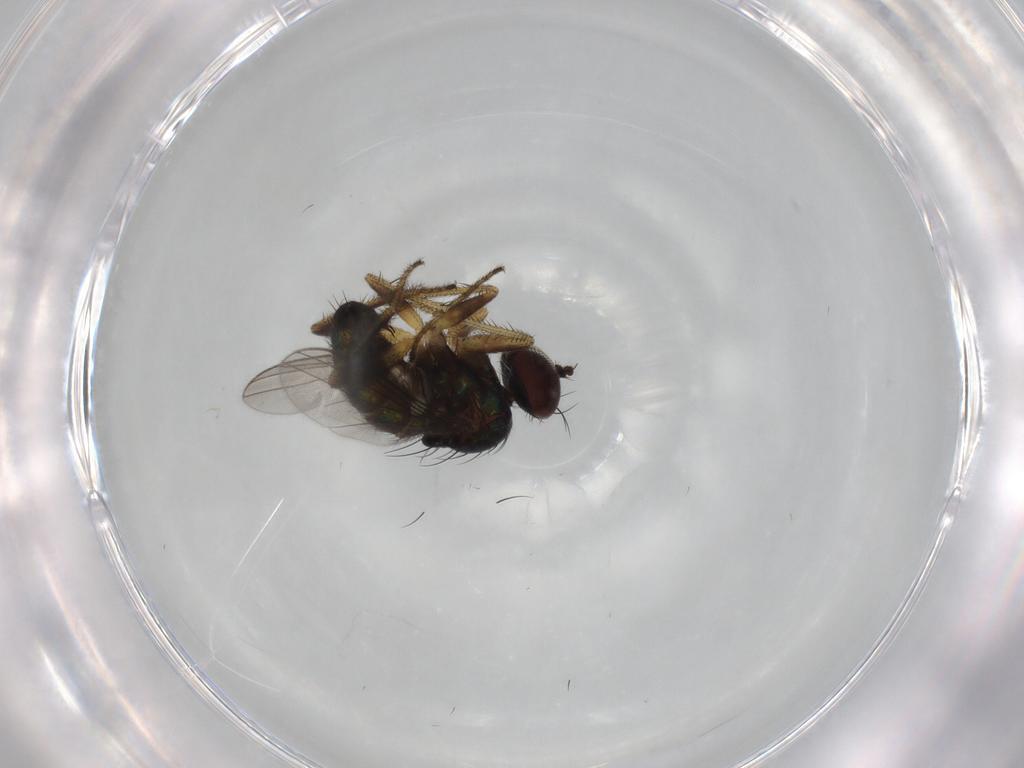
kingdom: Animalia
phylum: Arthropoda
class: Insecta
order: Diptera
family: Dolichopodidae
